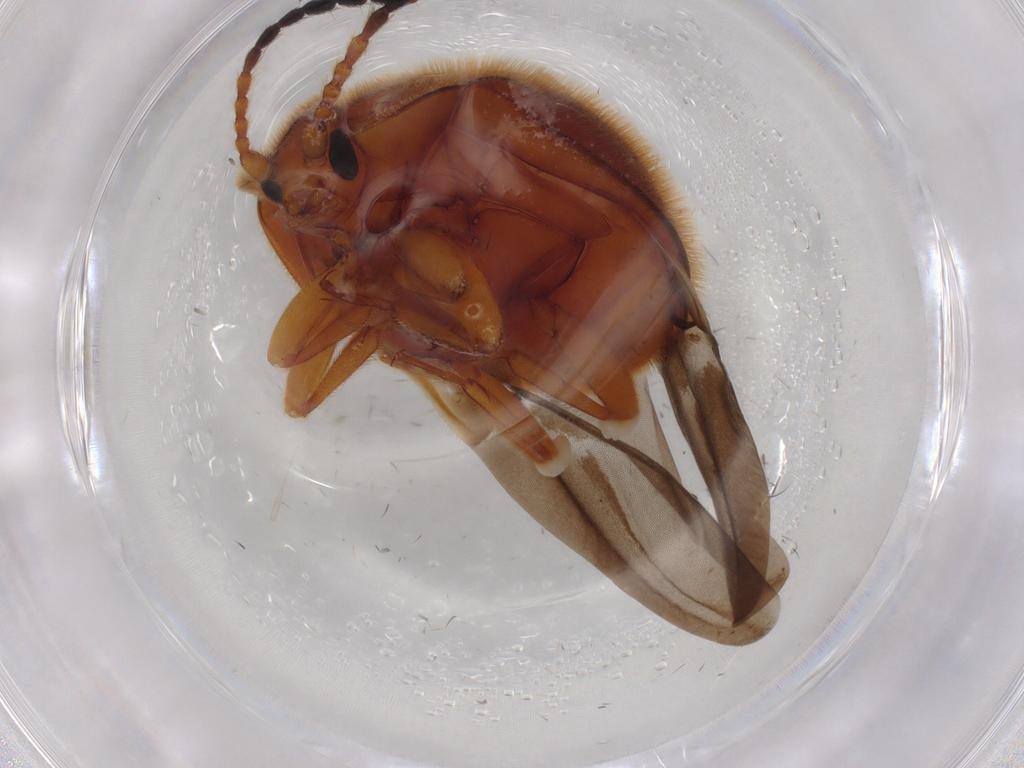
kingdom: Animalia
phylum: Arthropoda
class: Insecta
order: Coleoptera
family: Endomychidae
